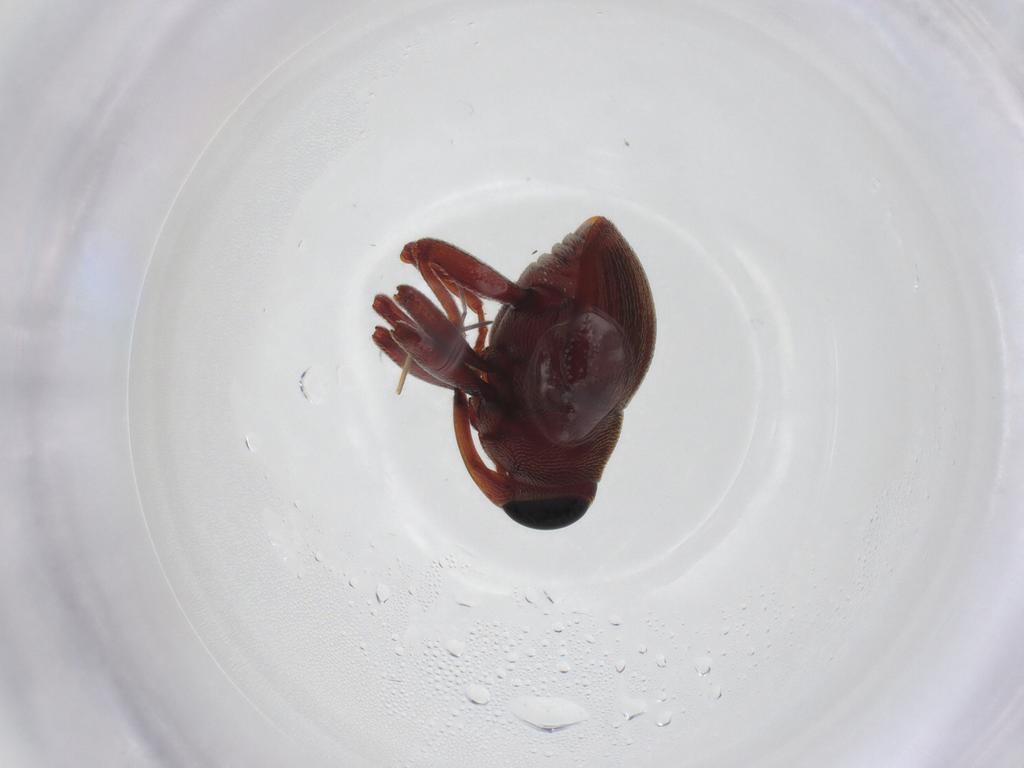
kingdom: Animalia
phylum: Arthropoda
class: Insecta
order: Coleoptera
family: Curculionidae
